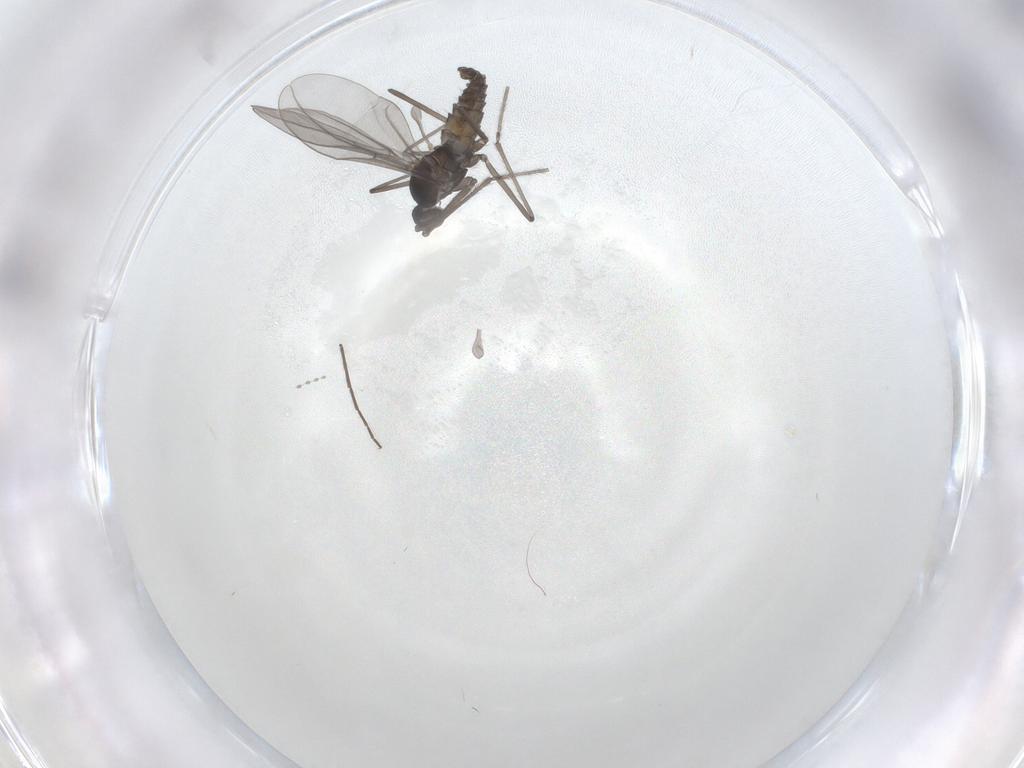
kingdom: Animalia
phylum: Arthropoda
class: Insecta
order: Diptera
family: Cecidomyiidae
